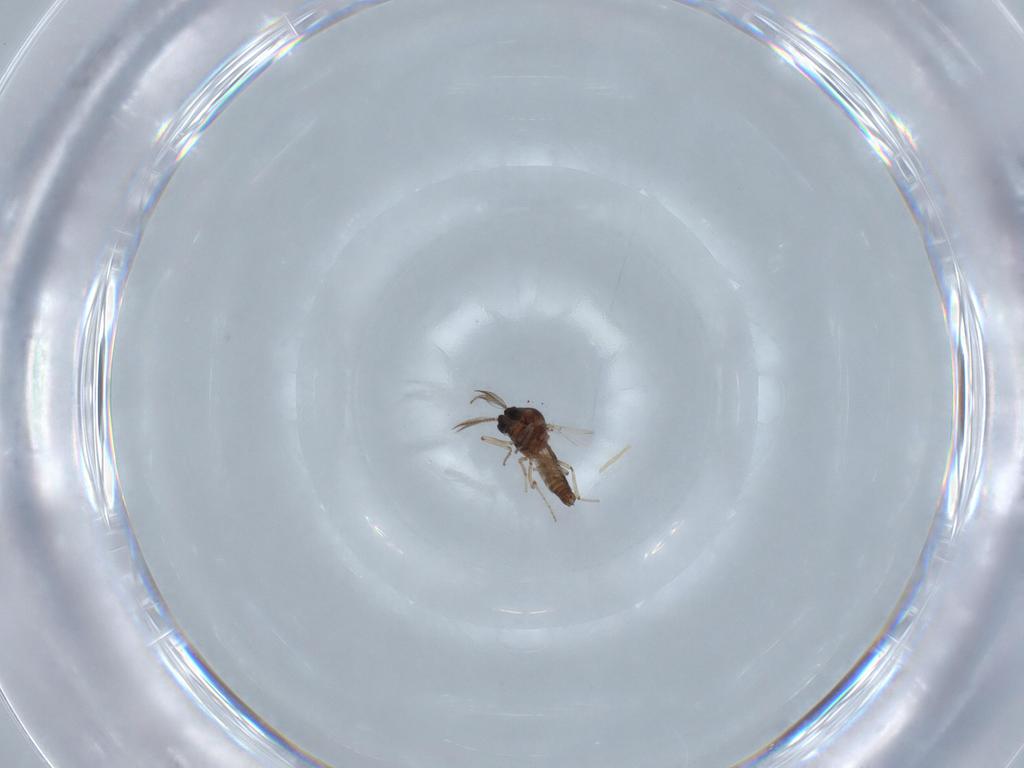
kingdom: Animalia
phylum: Arthropoda
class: Insecta
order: Diptera
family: Ceratopogonidae
